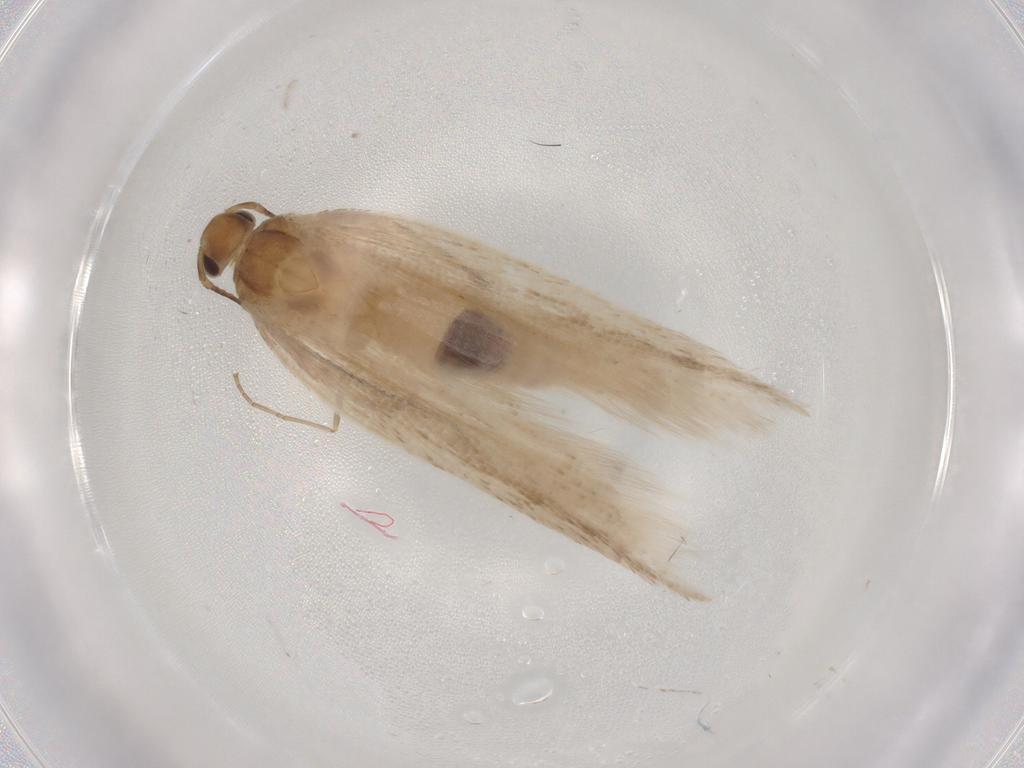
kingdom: Animalia
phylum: Arthropoda
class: Insecta
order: Lepidoptera
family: Gelechiidae
